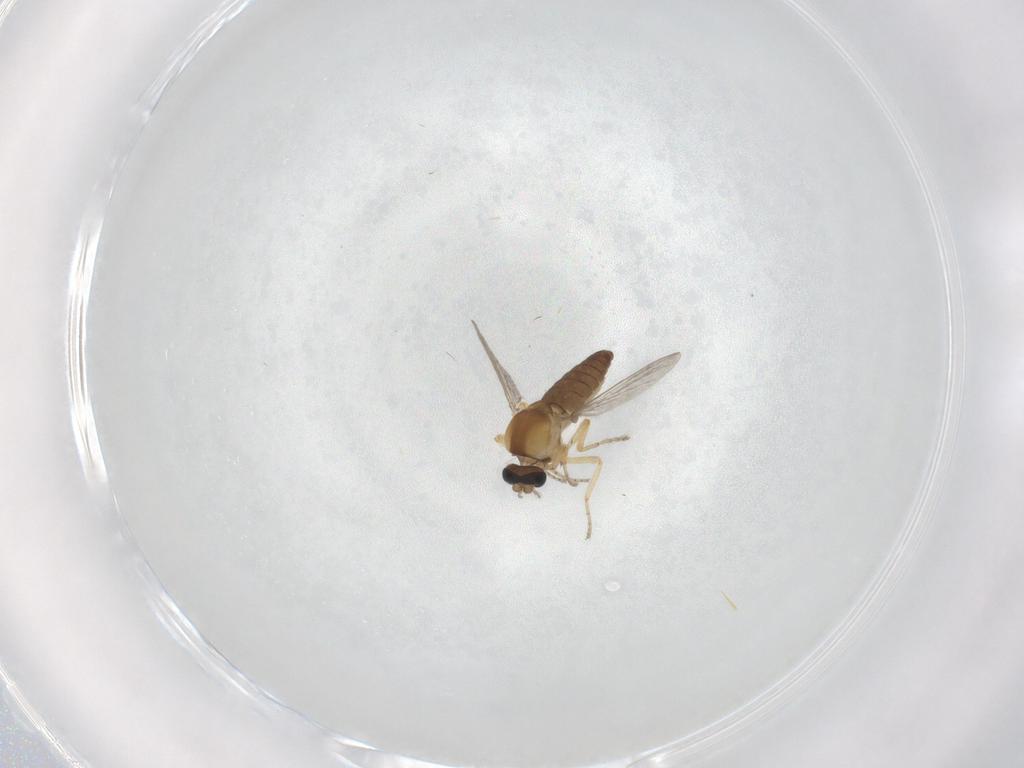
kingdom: Animalia
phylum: Arthropoda
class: Insecta
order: Diptera
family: Ceratopogonidae
